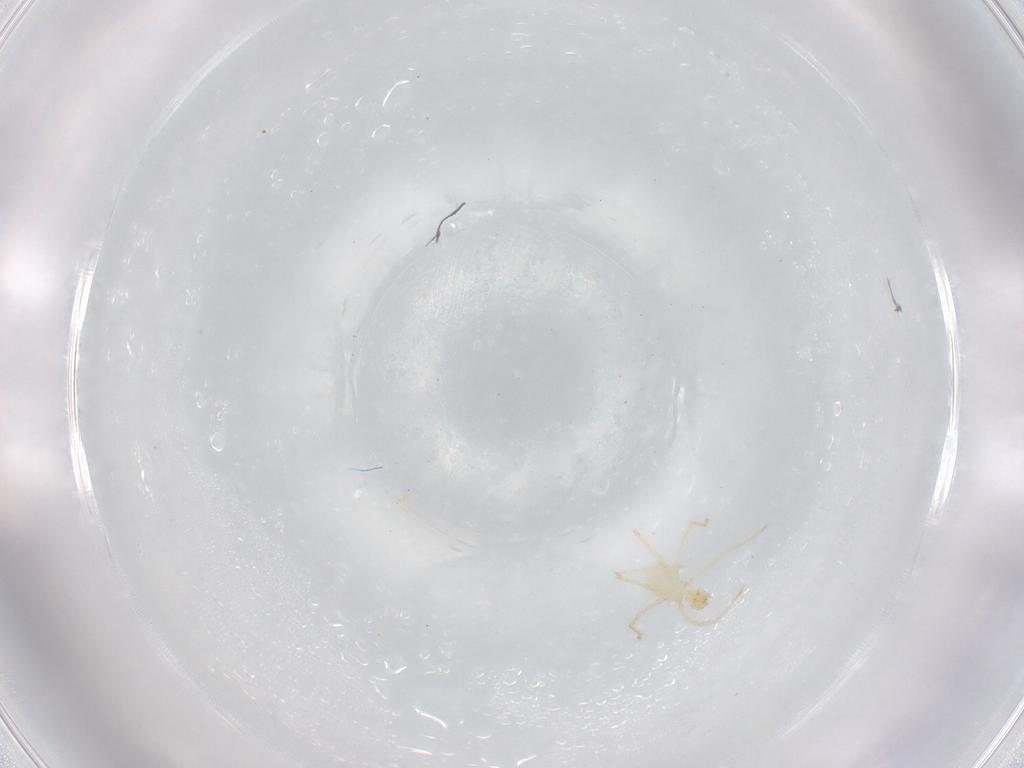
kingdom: Animalia
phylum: Arthropoda
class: Arachnida
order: Trombidiformes
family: Erythraeidae
